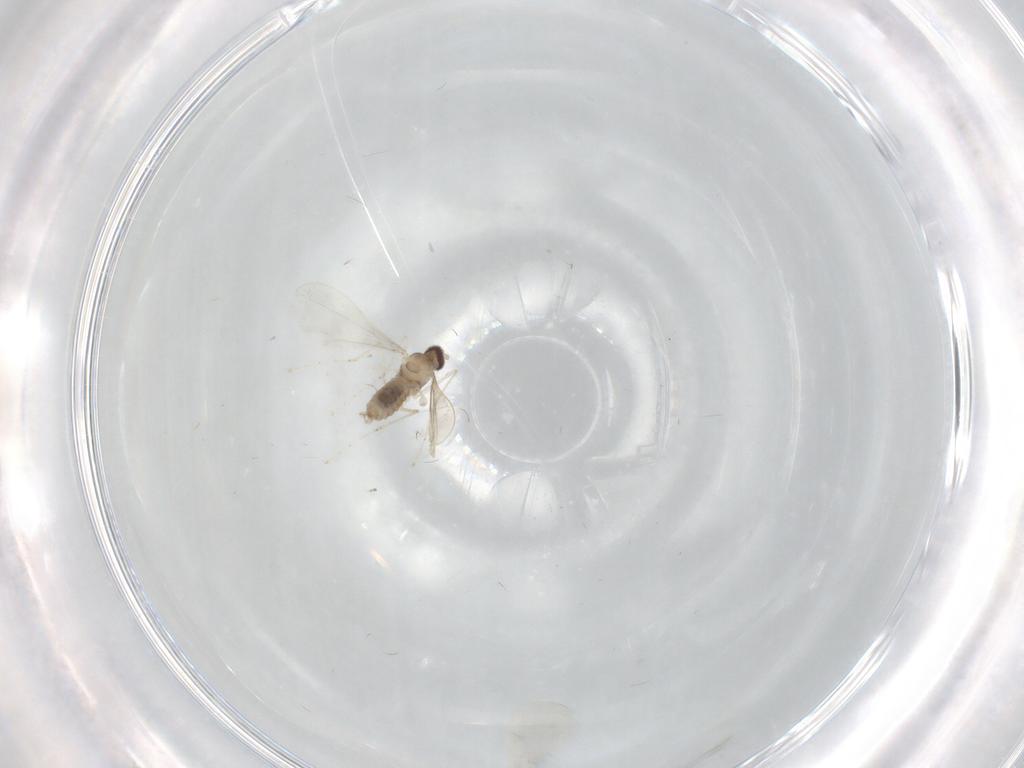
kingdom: Animalia
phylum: Arthropoda
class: Insecta
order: Diptera
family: Cecidomyiidae
